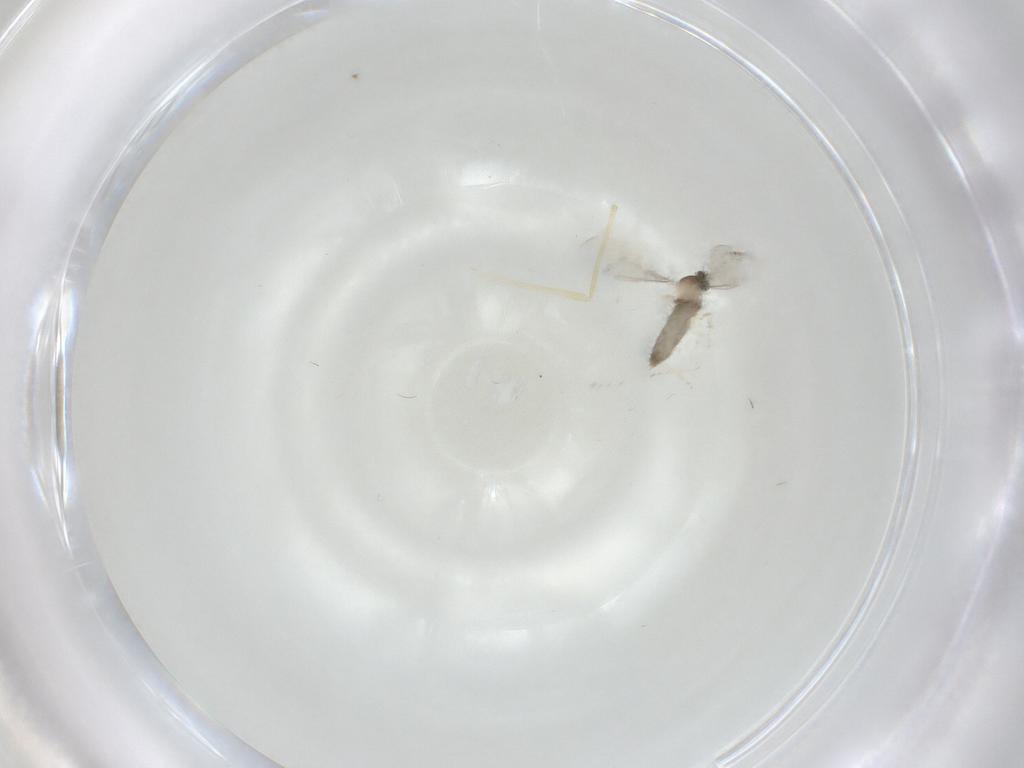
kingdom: Animalia
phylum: Arthropoda
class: Insecta
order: Diptera
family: Cecidomyiidae
